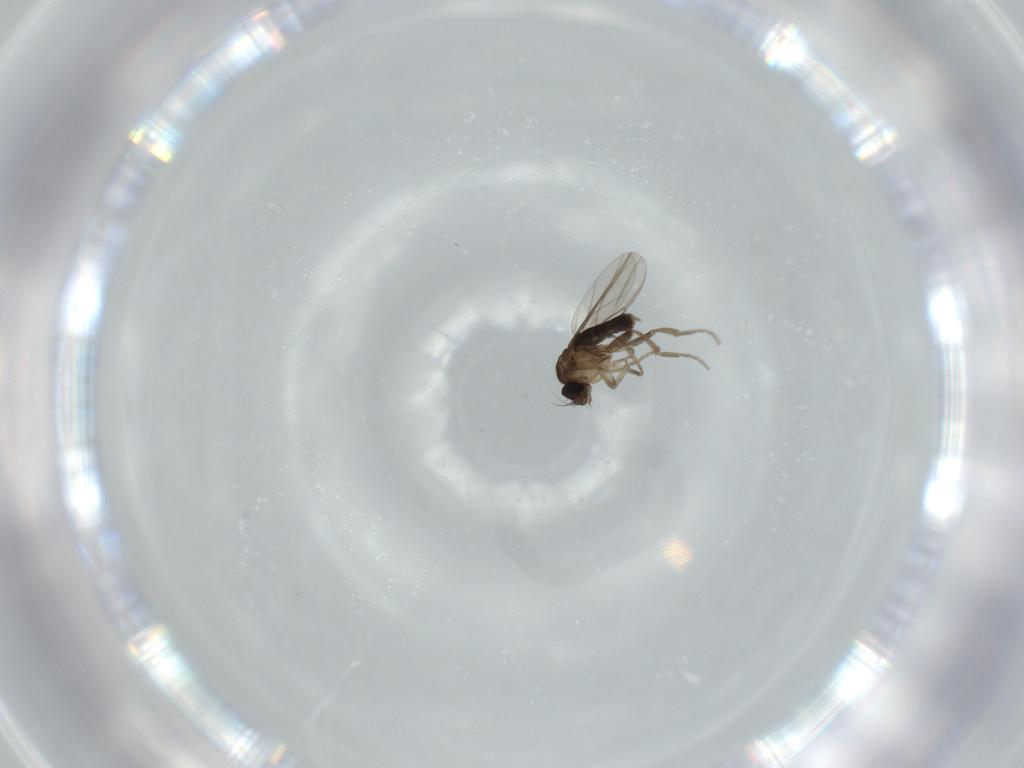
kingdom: Animalia
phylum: Arthropoda
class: Insecta
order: Diptera
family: Phoridae
